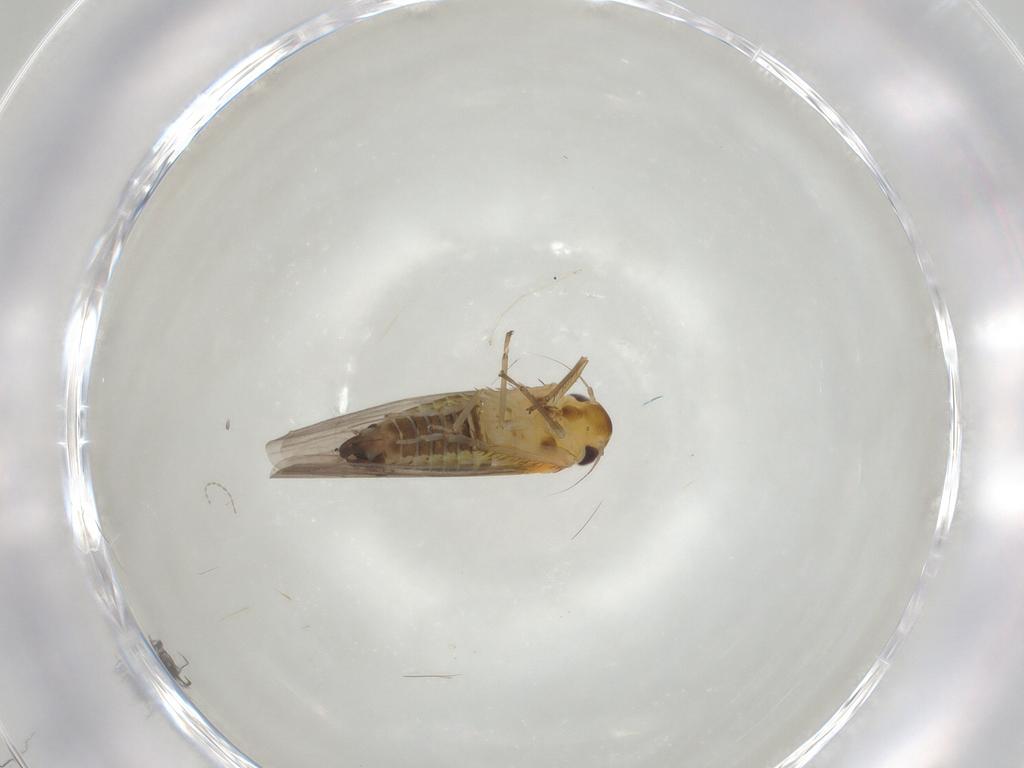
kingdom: Animalia
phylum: Arthropoda
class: Insecta
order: Hemiptera
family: Cicadellidae
